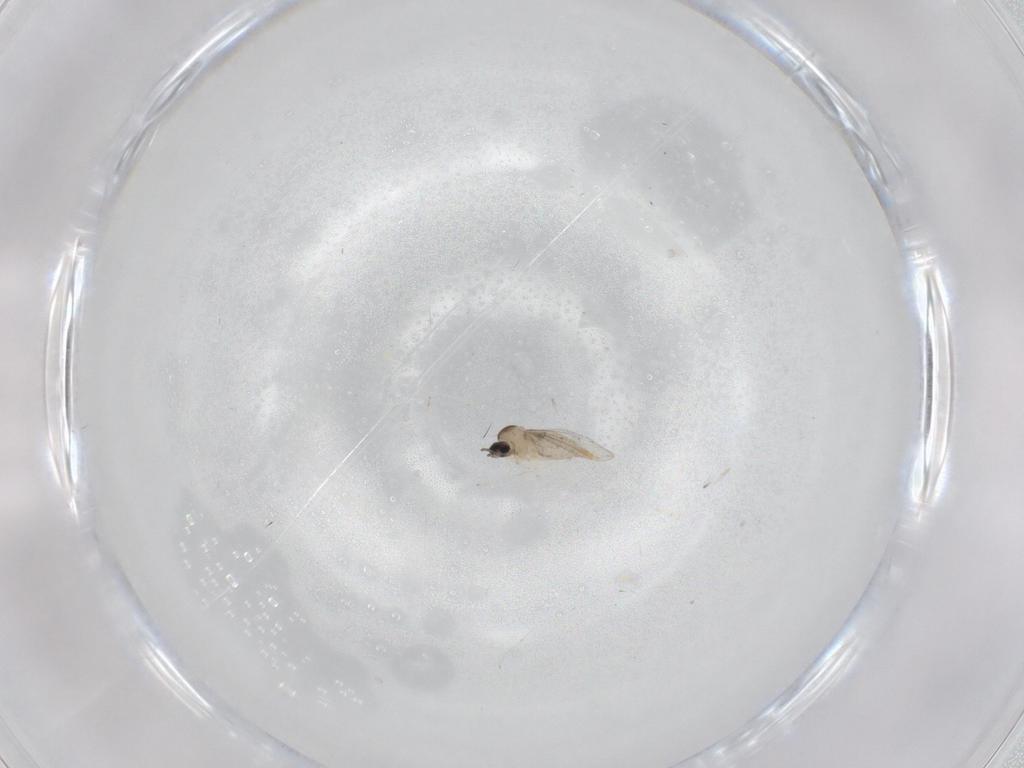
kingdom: Animalia
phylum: Arthropoda
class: Insecta
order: Diptera
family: Cecidomyiidae
